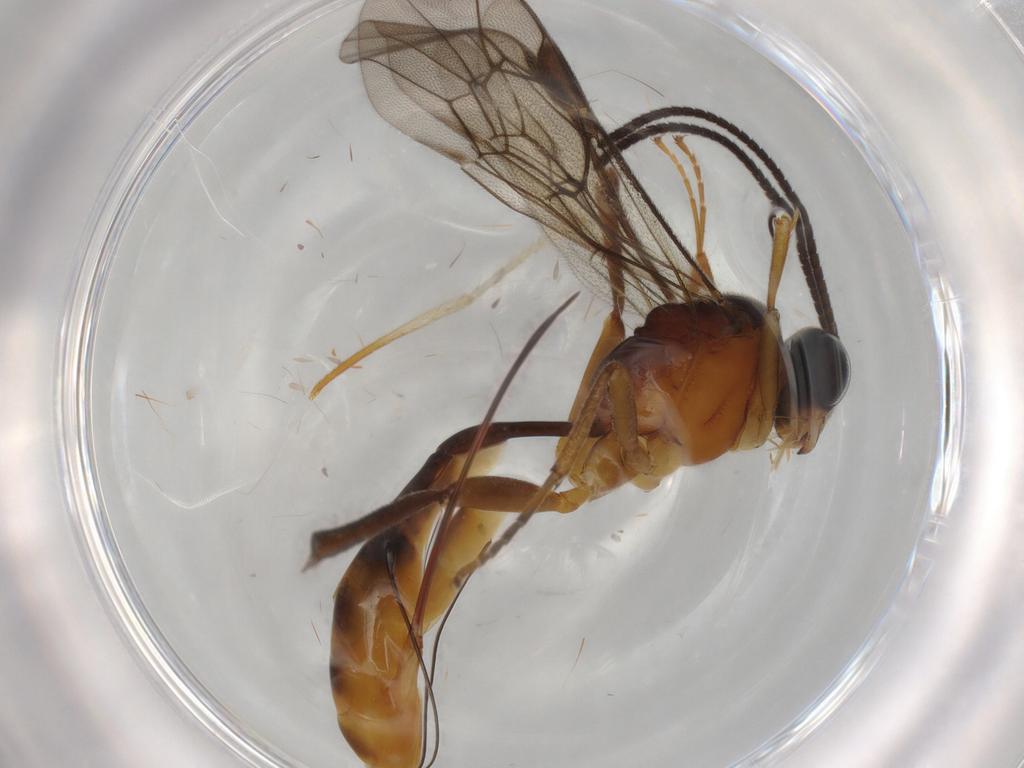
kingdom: Animalia
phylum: Arthropoda
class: Insecta
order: Hymenoptera
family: Ichneumonidae
